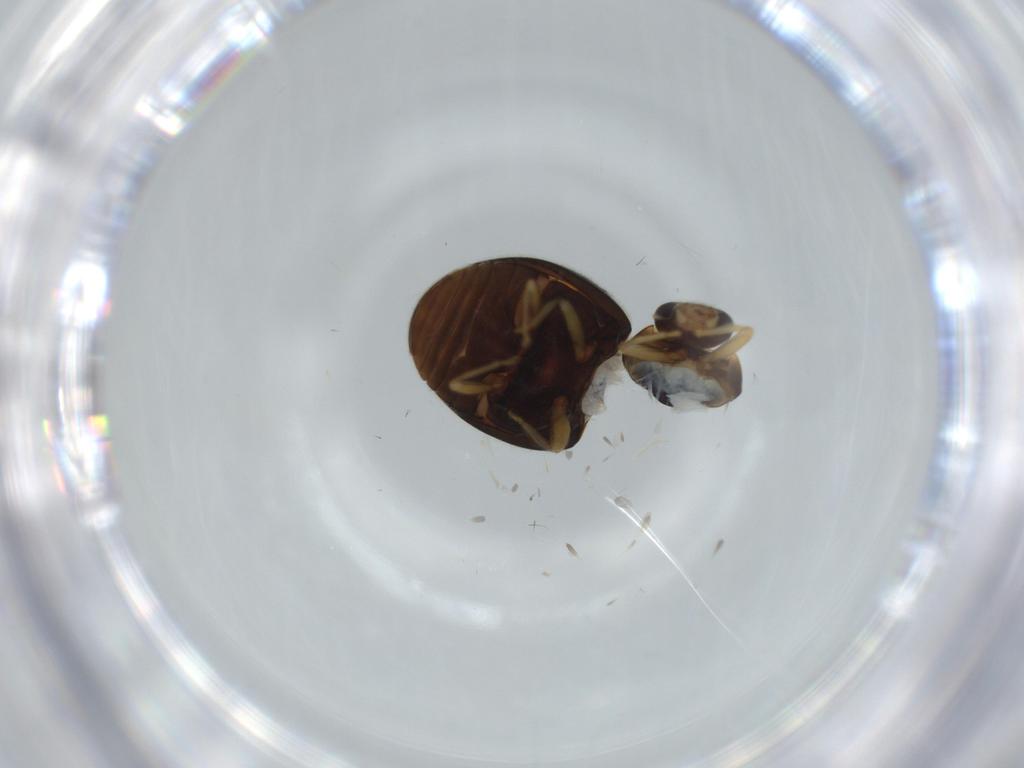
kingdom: Animalia
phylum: Arthropoda
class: Insecta
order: Coleoptera
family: Coccinellidae
